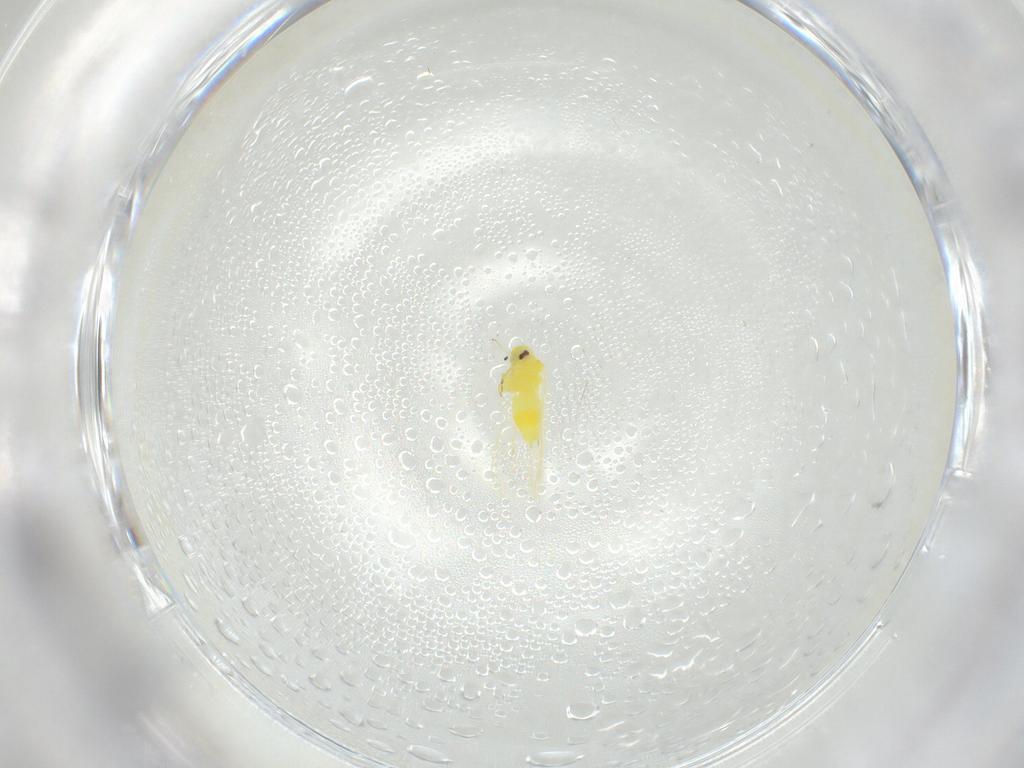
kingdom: Animalia
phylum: Arthropoda
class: Insecta
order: Hemiptera
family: Aleyrodidae
